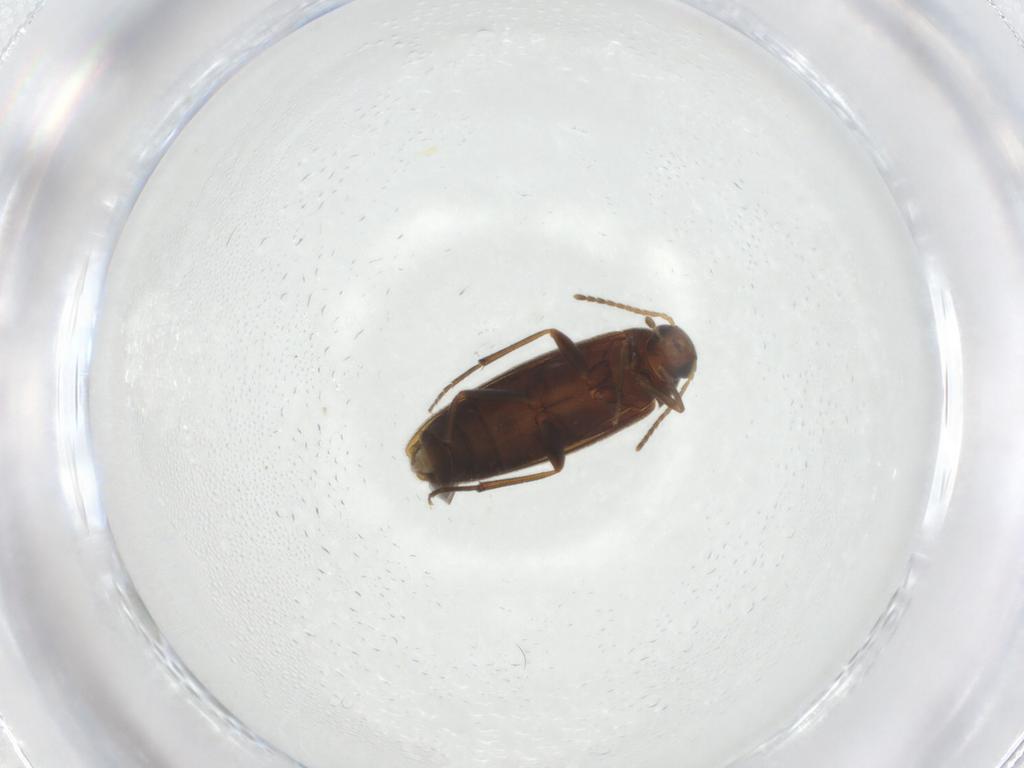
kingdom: Animalia
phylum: Arthropoda
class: Insecta
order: Coleoptera
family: Melandryidae
